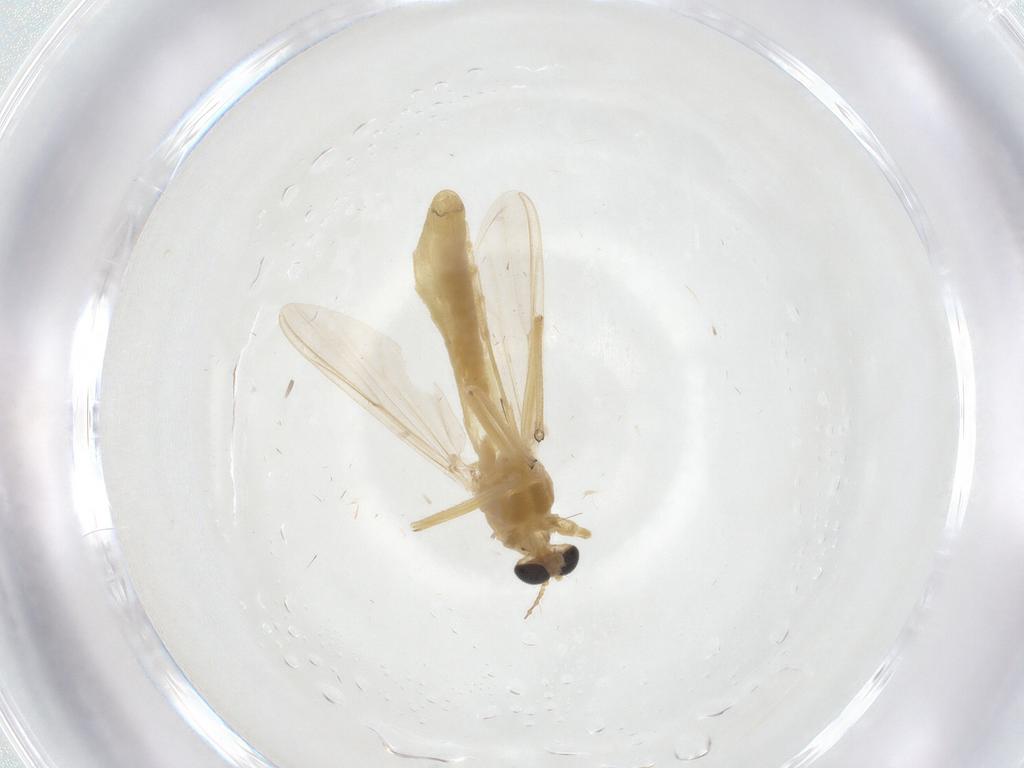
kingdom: Animalia
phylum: Arthropoda
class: Insecta
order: Diptera
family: Chironomidae
